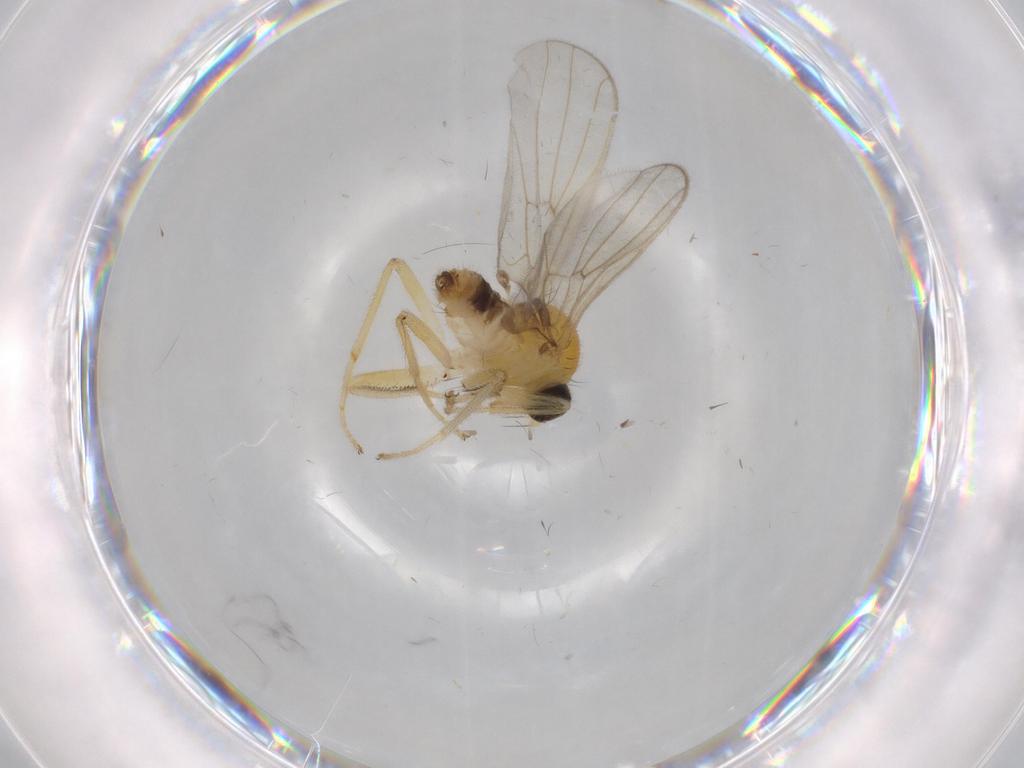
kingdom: Animalia
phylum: Arthropoda
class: Insecta
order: Diptera
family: Hybotidae
